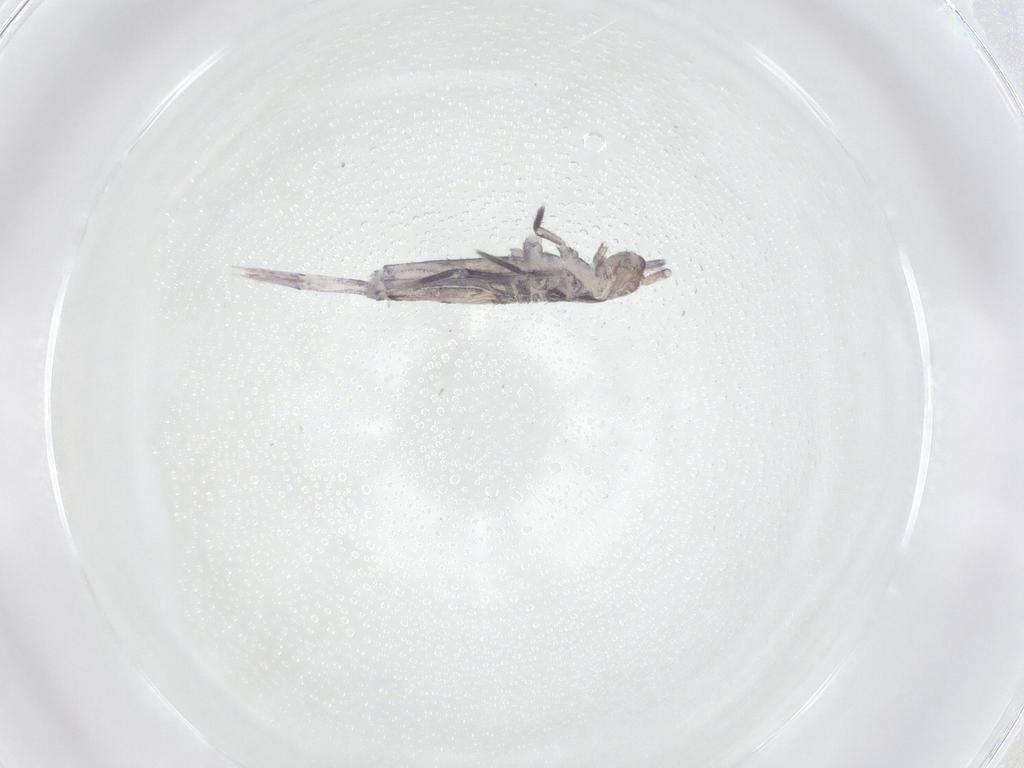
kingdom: Animalia
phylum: Arthropoda
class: Collembola
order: Entomobryomorpha
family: Entomobryidae
